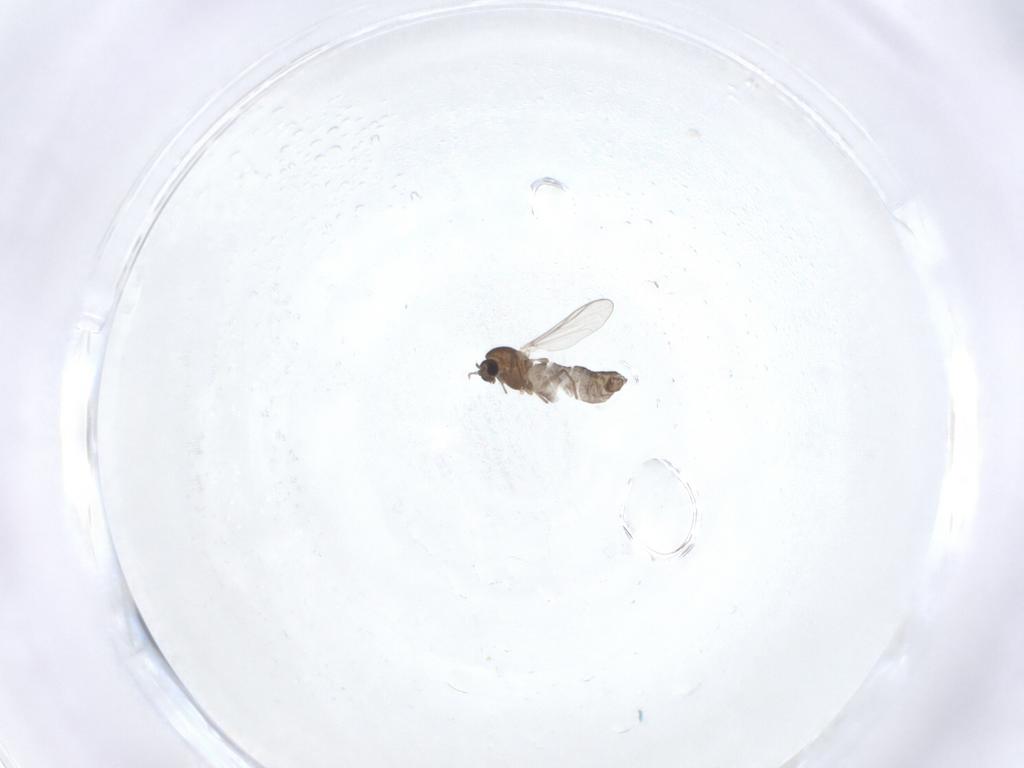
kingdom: Animalia
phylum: Arthropoda
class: Insecta
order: Diptera
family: Chironomidae
